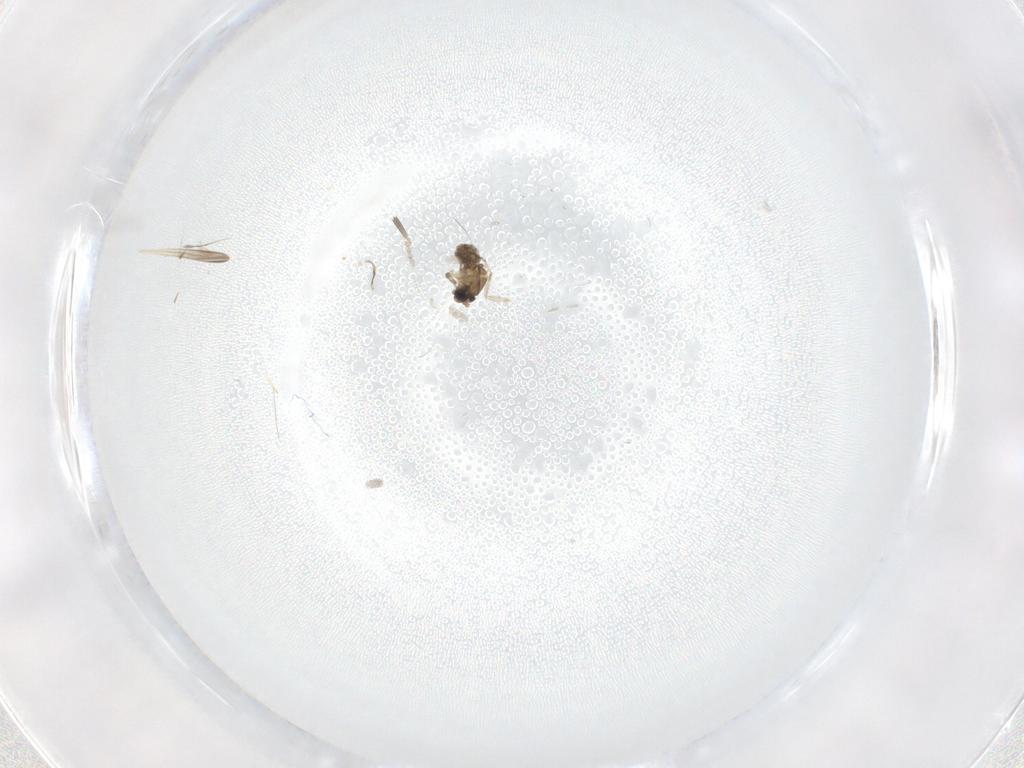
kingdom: Animalia
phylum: Arthropoda
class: Insecta
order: Diptera
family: Cecidomyiidae
